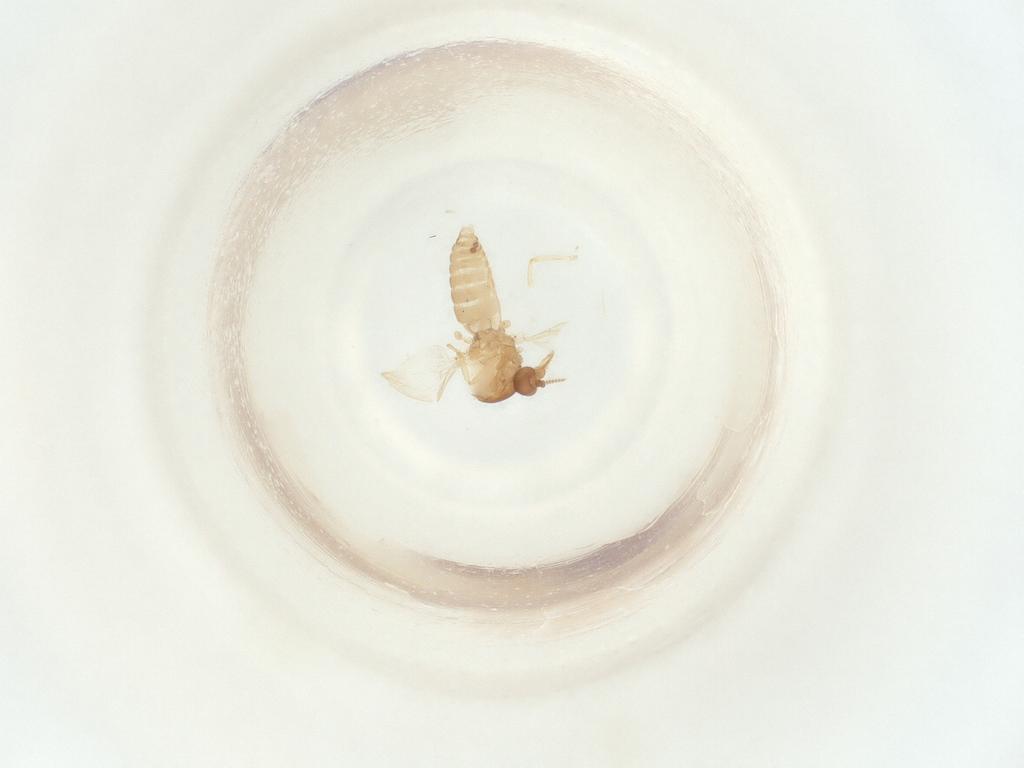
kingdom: Animalia
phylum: Arthropoda
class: Insecta
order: Diptera
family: Ceratopogonidae
